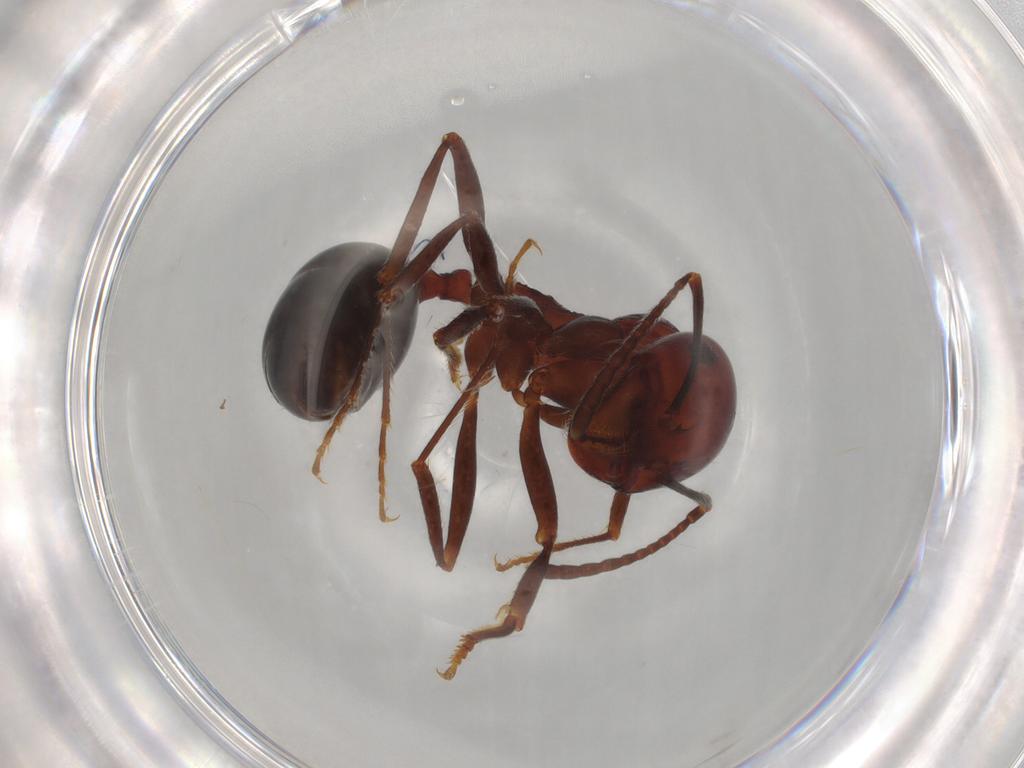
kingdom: Animalia
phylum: Arthropoda
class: Insecta
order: Hymenoptera
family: Formicidae
